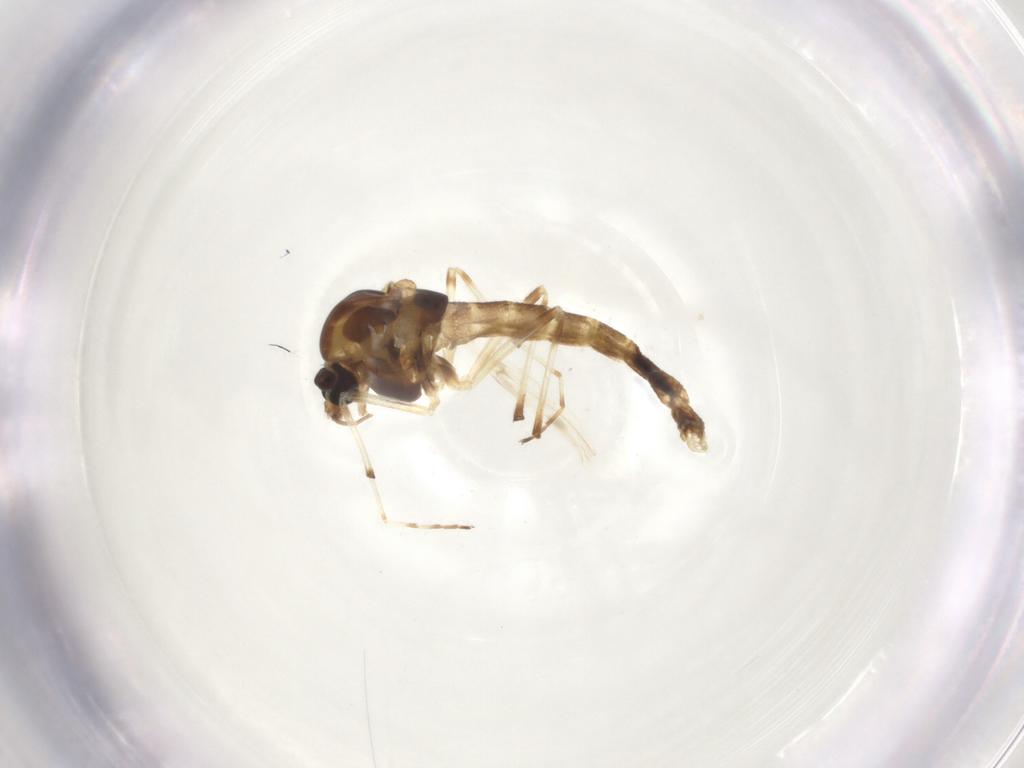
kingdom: Animalia
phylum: Arthropoda
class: Insecta
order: Diptera
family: Chironomidae
